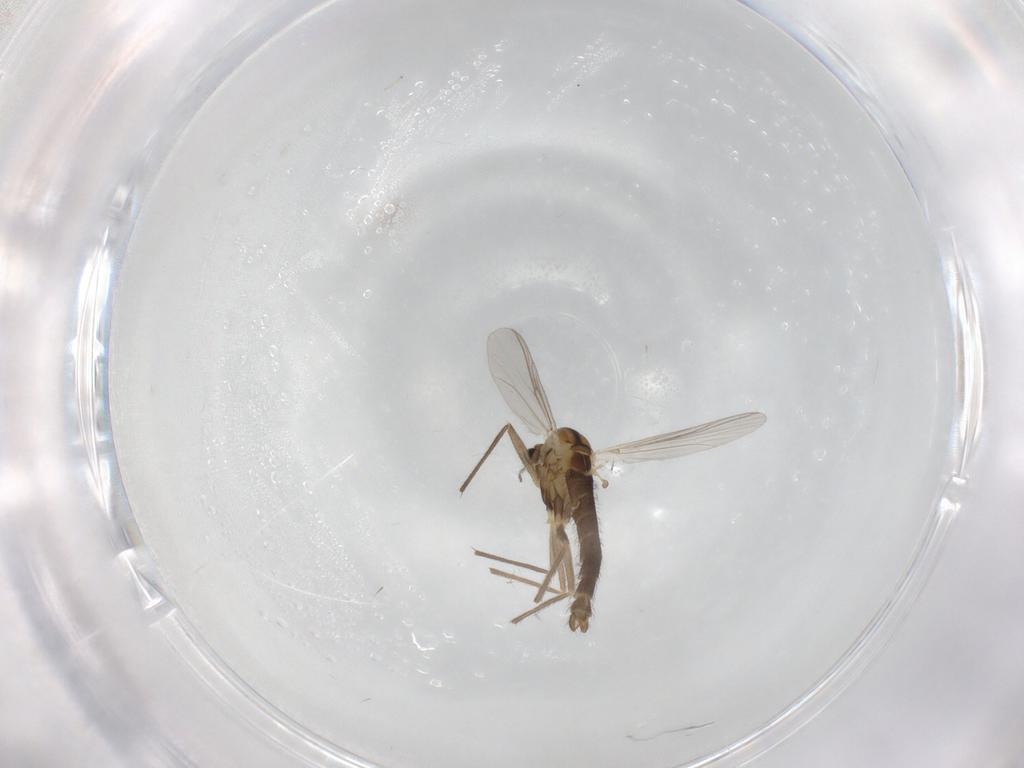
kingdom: Animalia
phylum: Arthropoda
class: Insecta
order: Diptera
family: Chironomidae
